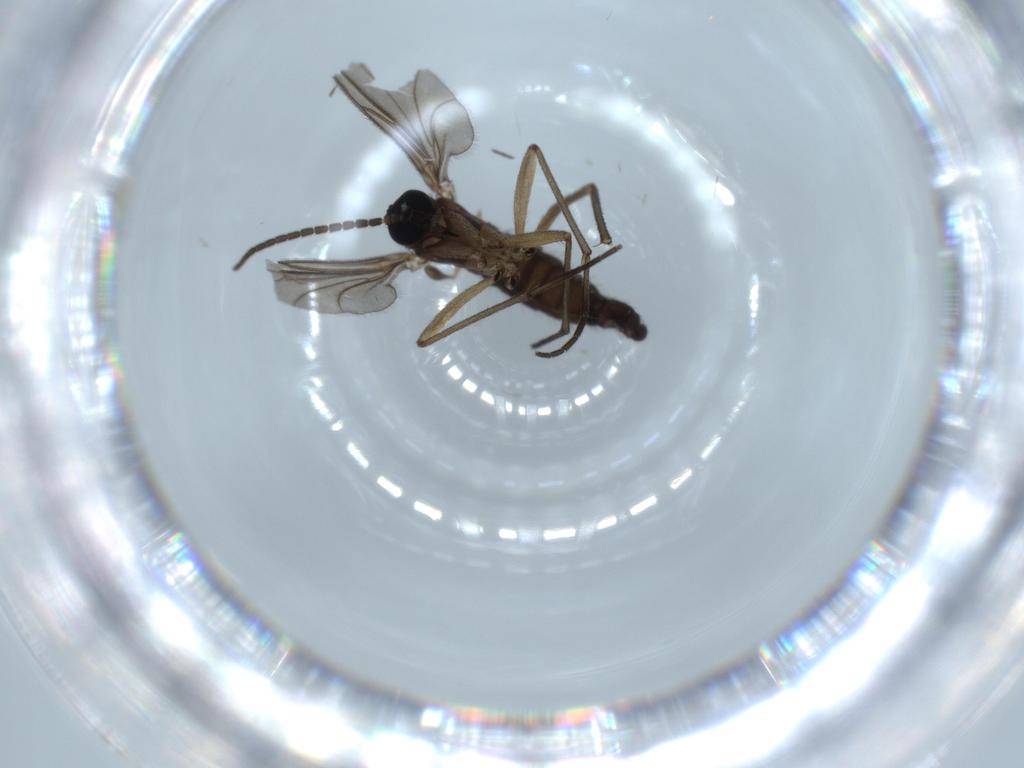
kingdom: Animalia
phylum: Arthropoda
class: Insecta
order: Diptera
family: Sciaridae
